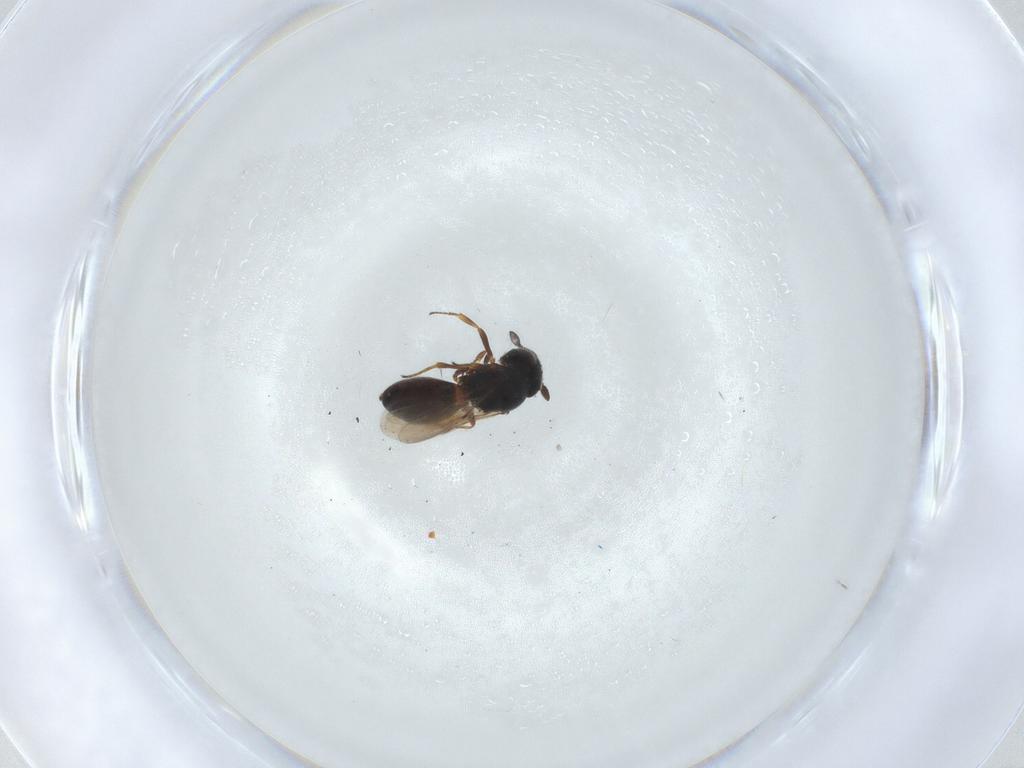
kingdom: Animalia
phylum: Arthropoda
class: Insecta
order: Hymenoptera
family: Scelionidae
